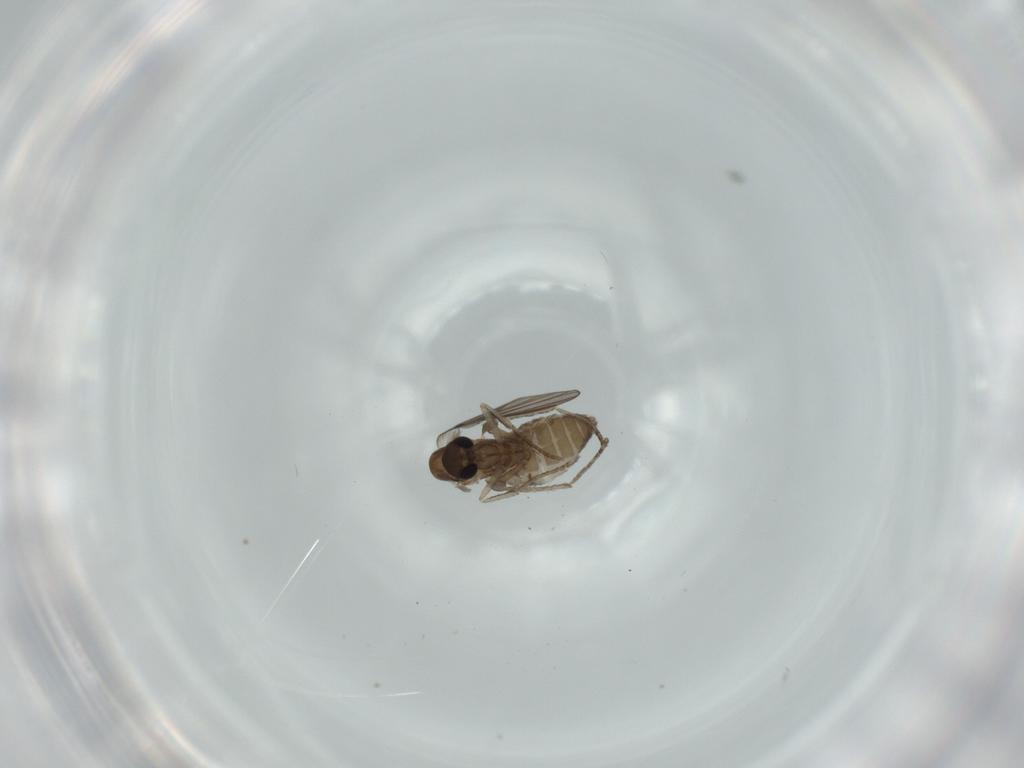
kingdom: Animalia
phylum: Arthropoda
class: Insecta
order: Diptera
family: Psychodidae
